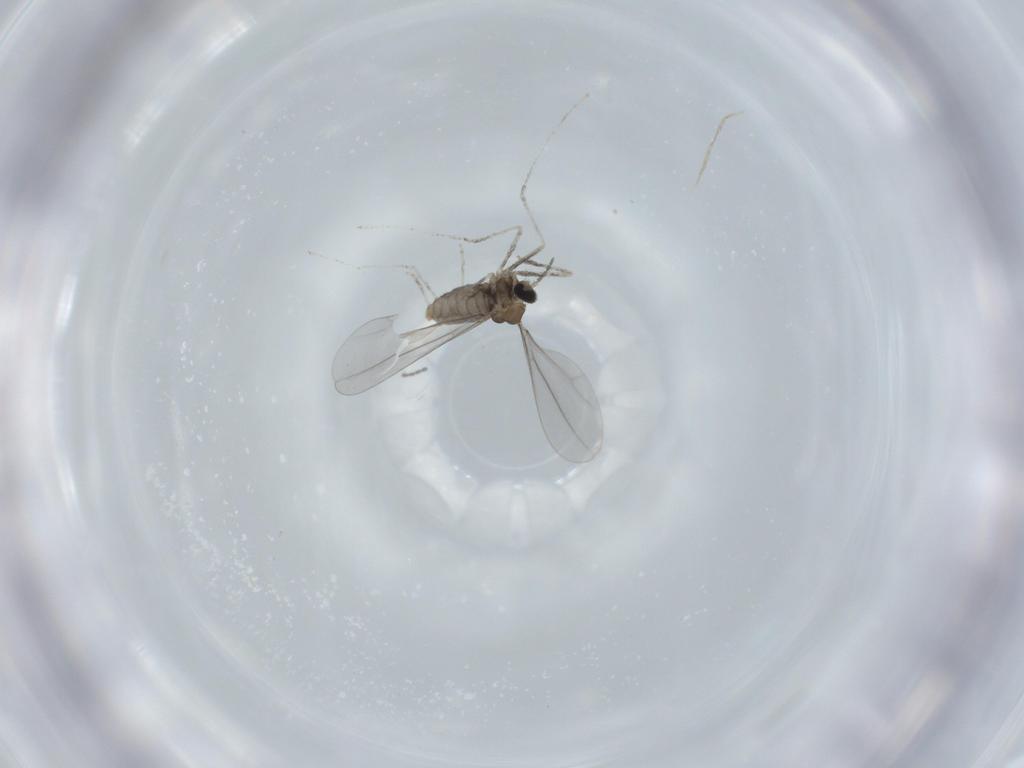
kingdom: Animalia
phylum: Arthropoda
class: Insecta
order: Diptera
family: Cecidomyiidae
